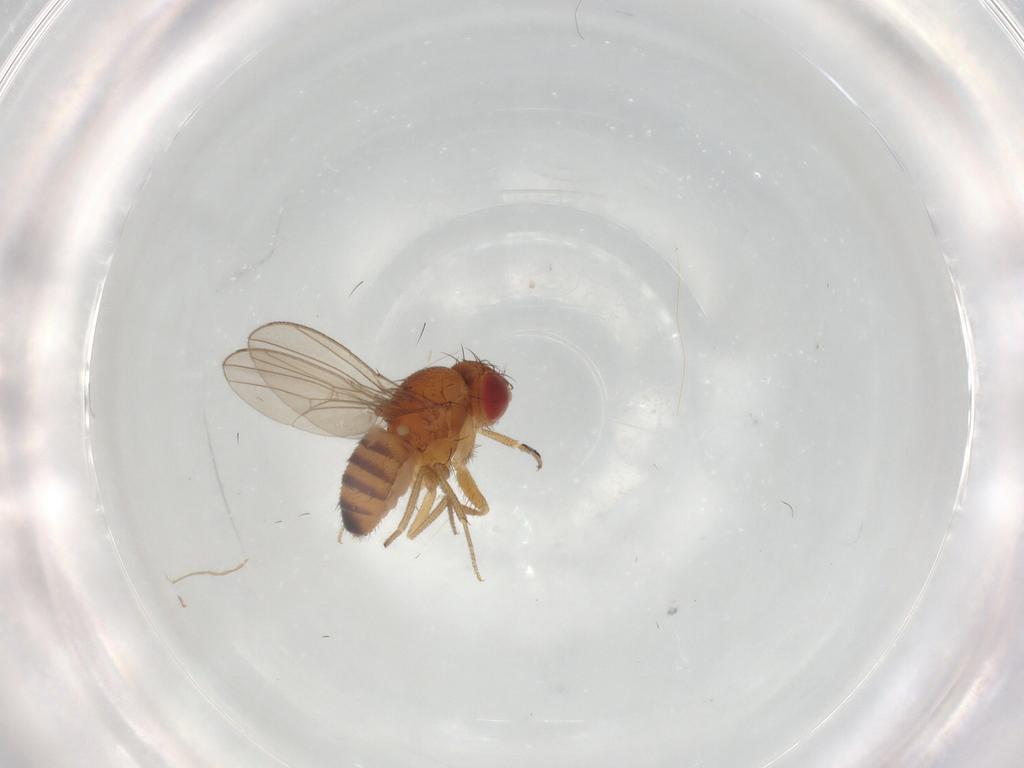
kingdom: Animalia
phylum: Arthropoda
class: Insecta
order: Diptera
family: Drosophilidae
